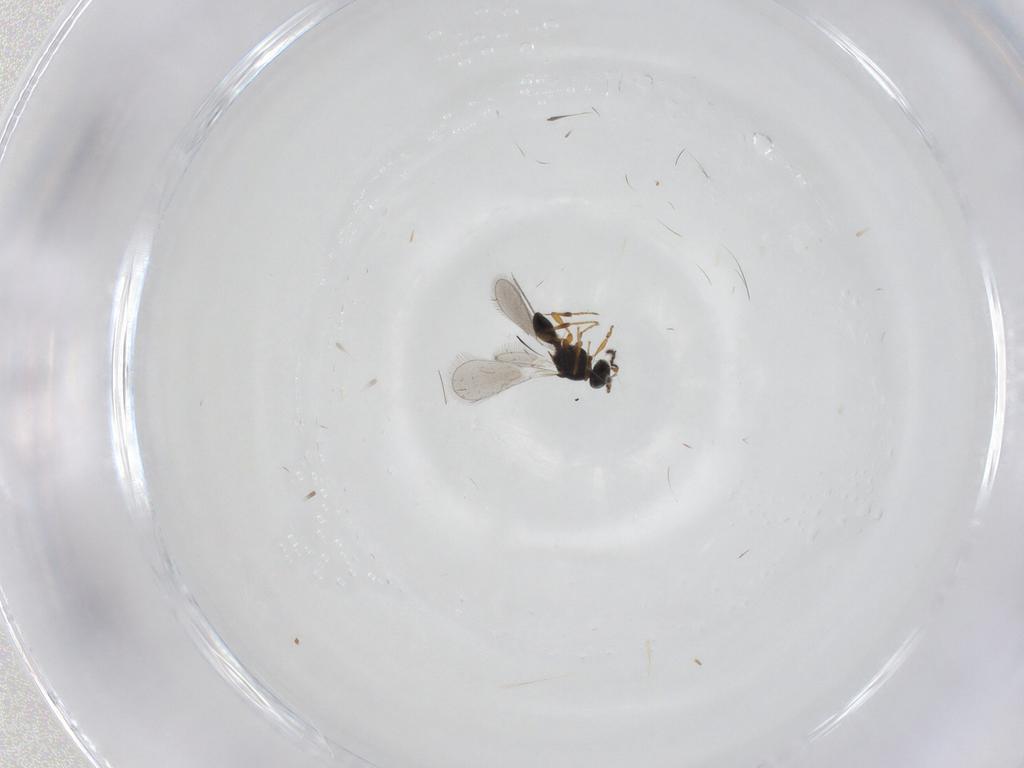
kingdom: Animalia
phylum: Arthropoda
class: Insecta
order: Hymenoptera
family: Platygastridae
